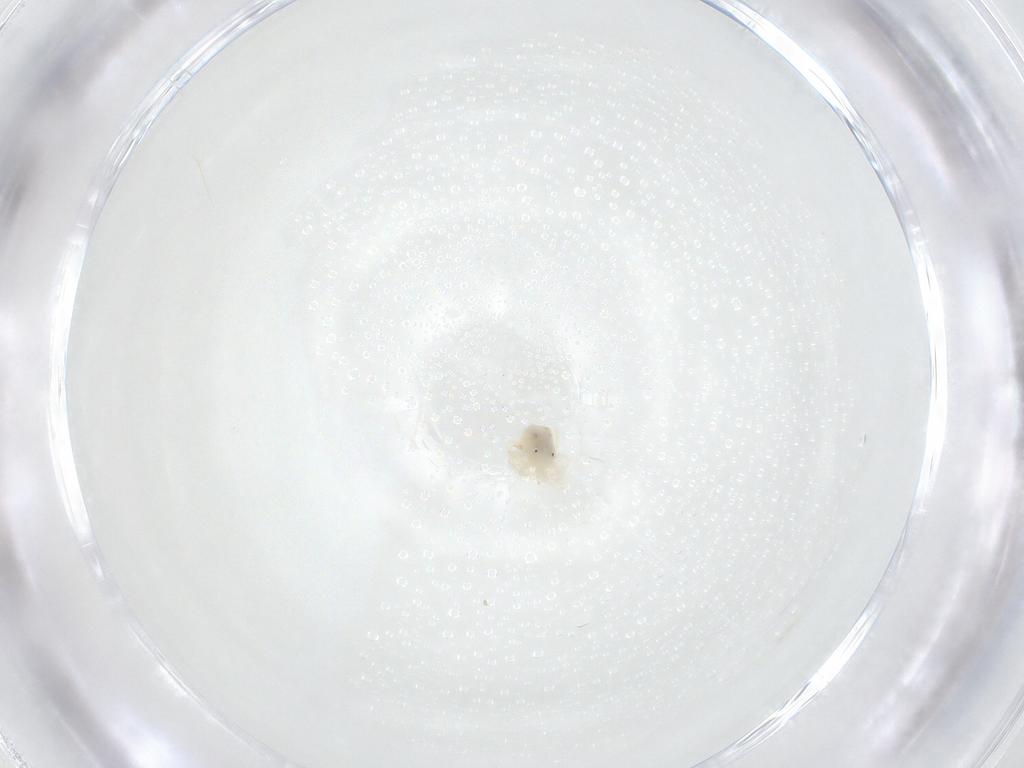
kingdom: Animalia
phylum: Arthropoda
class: Arachnida
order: Trombidiformes
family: Anystidae
